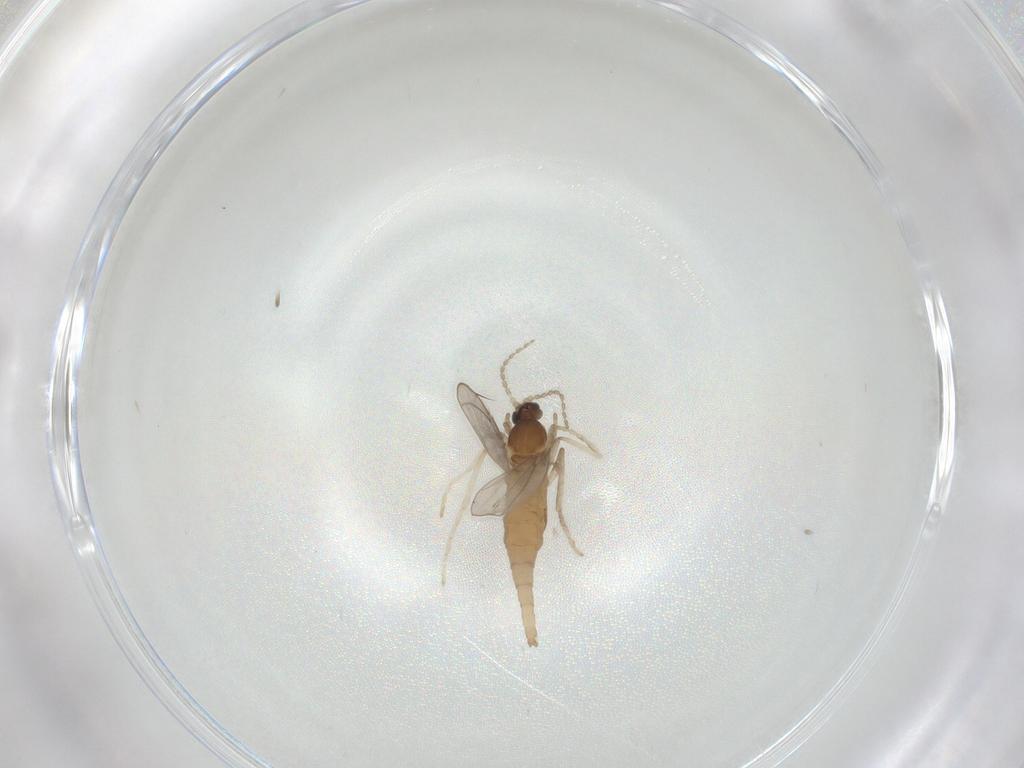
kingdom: Animalia
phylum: Arthropoda
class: Insecta
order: Diptera
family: Cecidomyiidae
